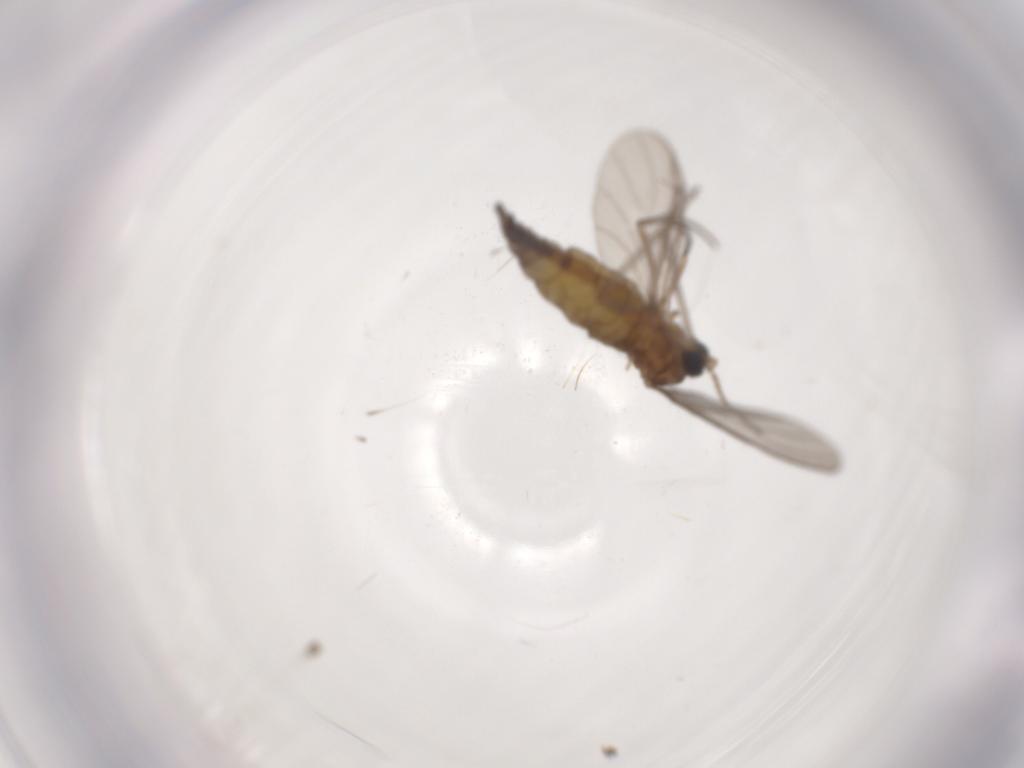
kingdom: Animalia
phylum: Arthropoda
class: Insecta
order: Diptera
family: Sciaridae
